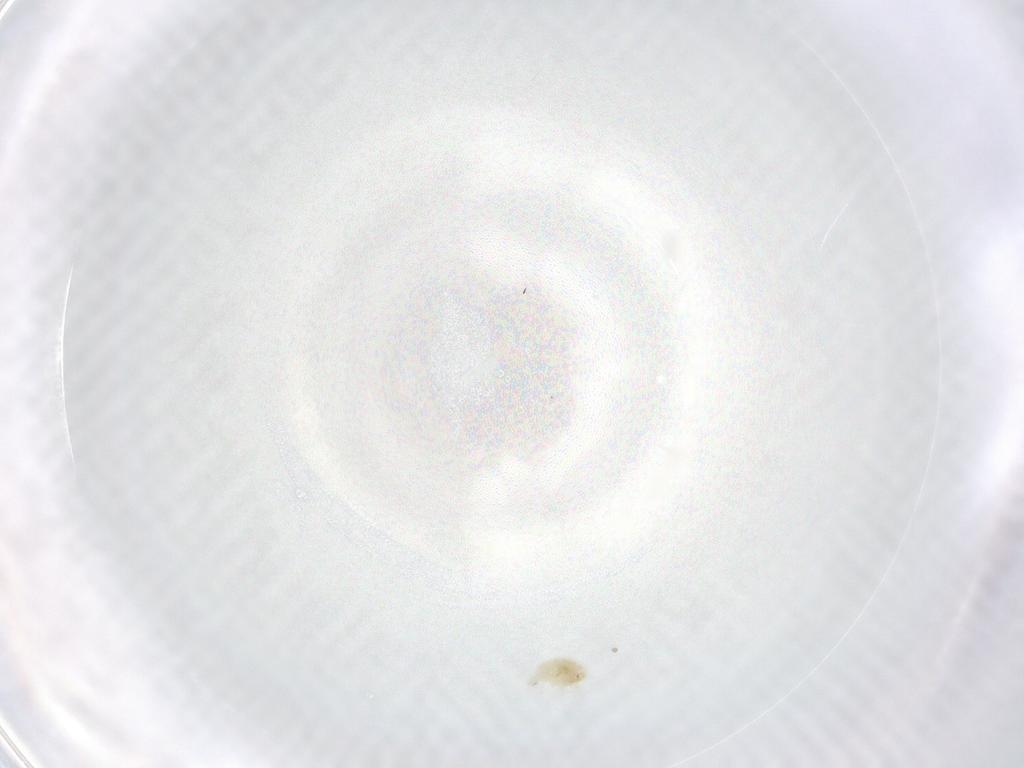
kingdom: Animalia
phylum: Arthropoda
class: Arachnida
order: Trombidiformes
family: Eupodidae
